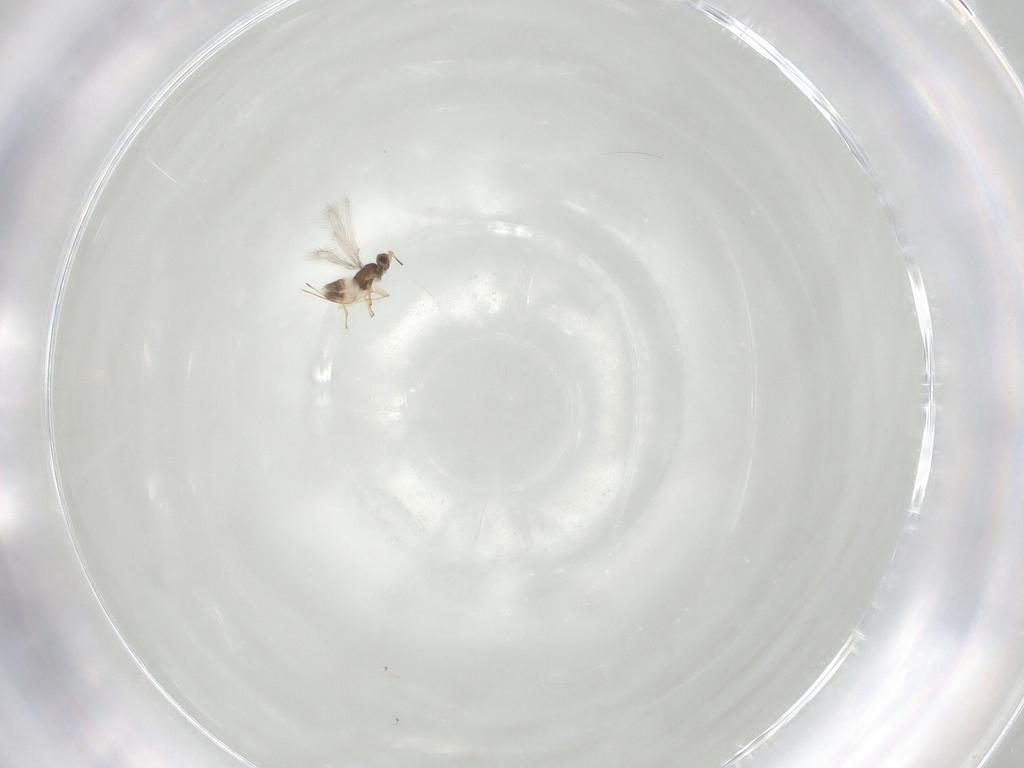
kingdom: Animalia
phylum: Arthropoda
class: Insecta
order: Hymenoptera
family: Mymaridae
